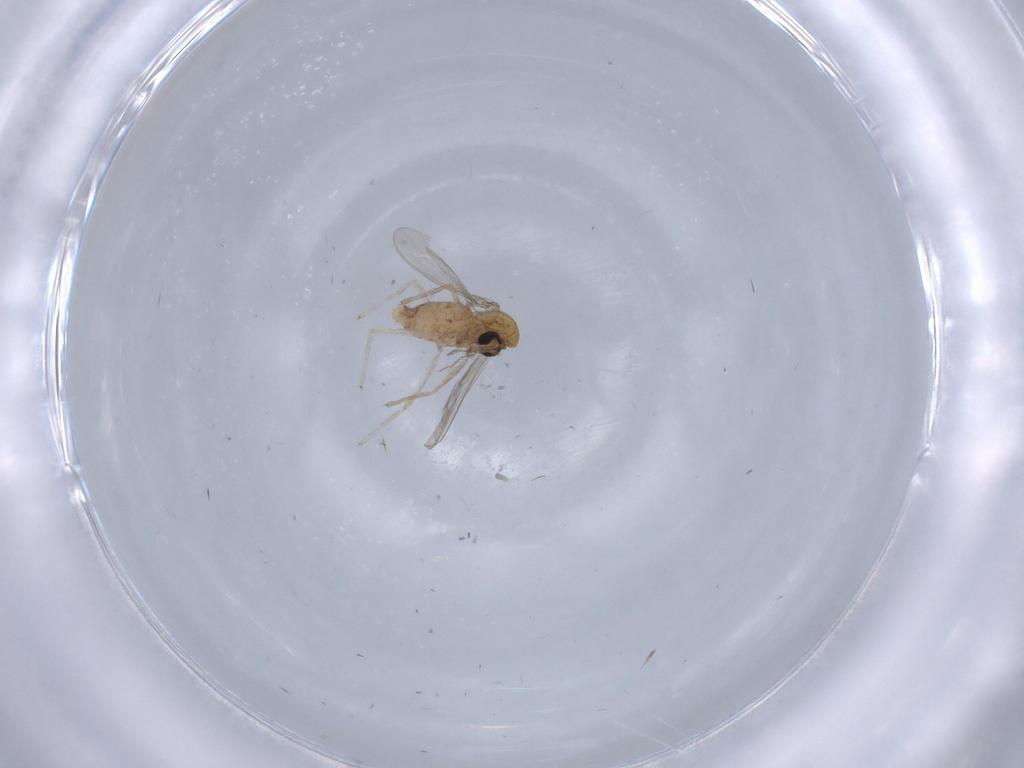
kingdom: Animalia
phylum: Arthropoda
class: Insecta
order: Diptera
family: Chironomidae
